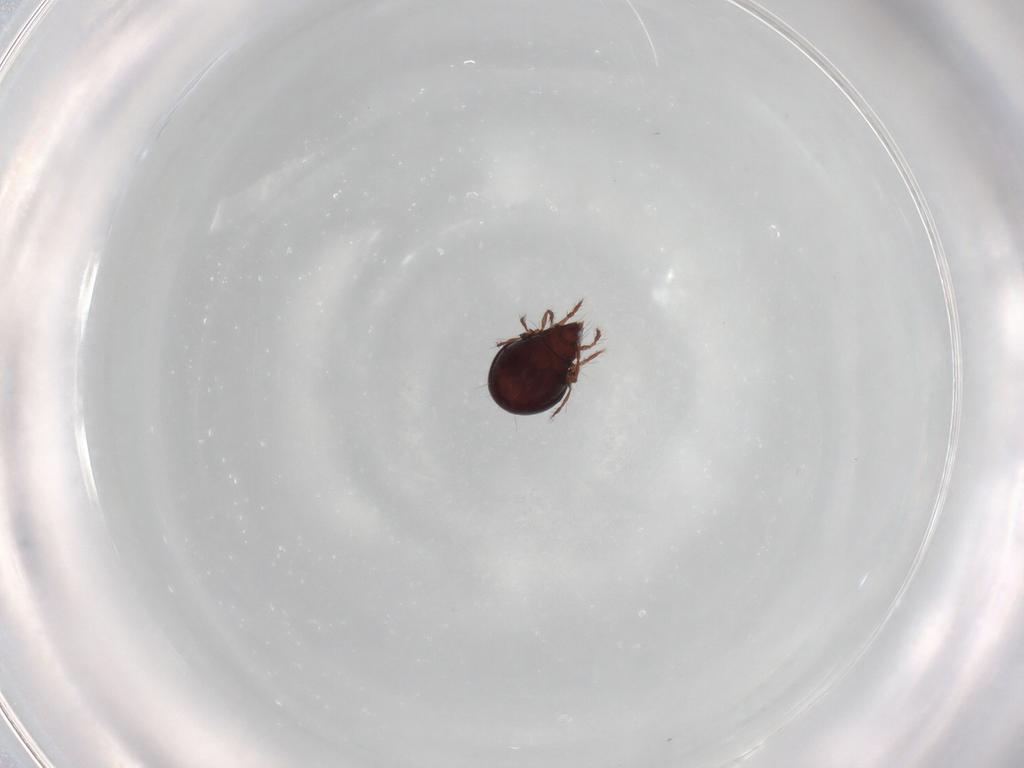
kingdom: Animalia
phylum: Arthropoda
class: Arachnida
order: Sarcoptiformes
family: Ceratoppiidae
